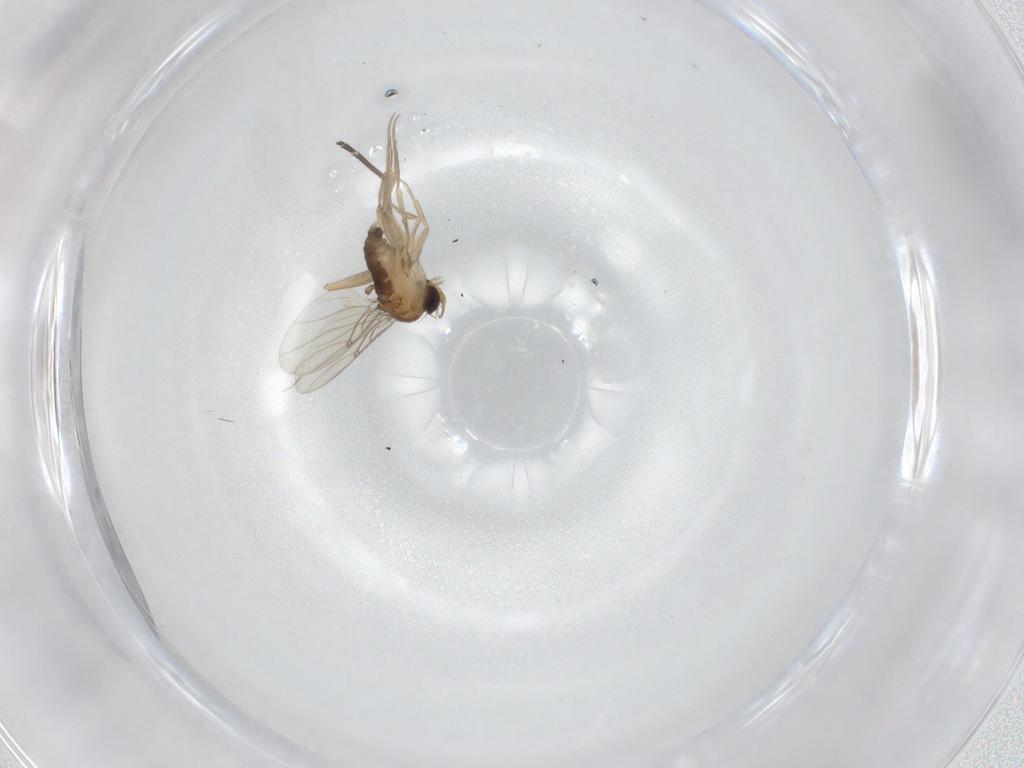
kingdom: Animalia
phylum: Arthropoda
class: Insecta
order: Diptera
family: Sciaridae
